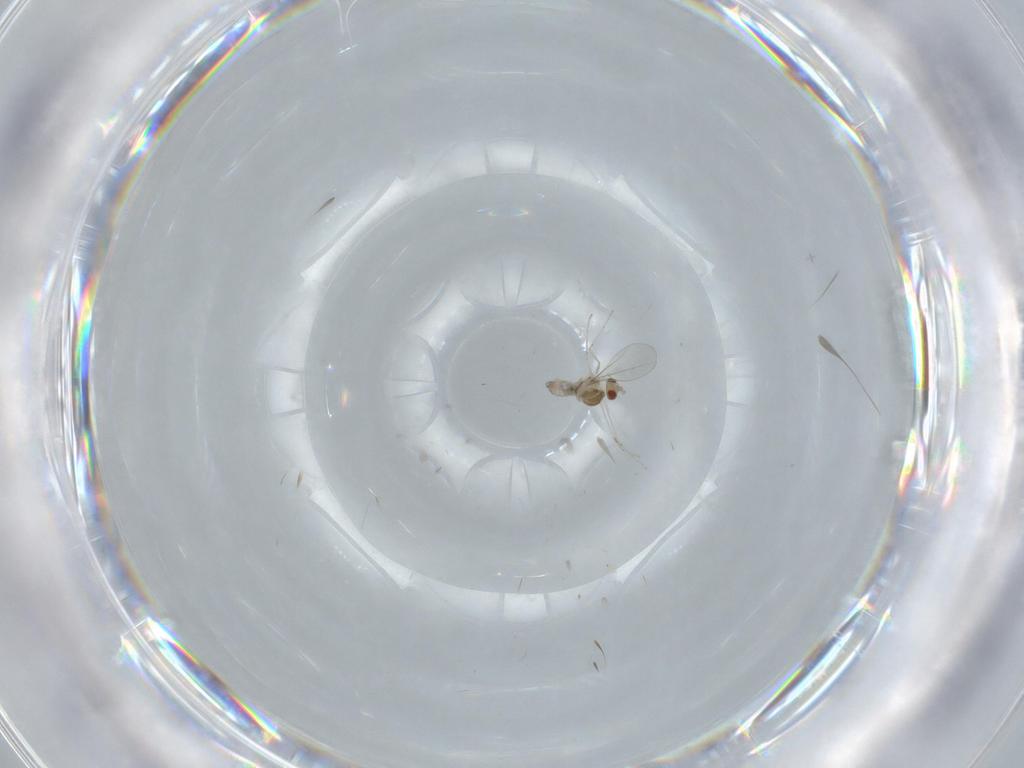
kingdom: Animalia
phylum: Arthropoda
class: Insecta
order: Diptera
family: Cecidomyiidae
